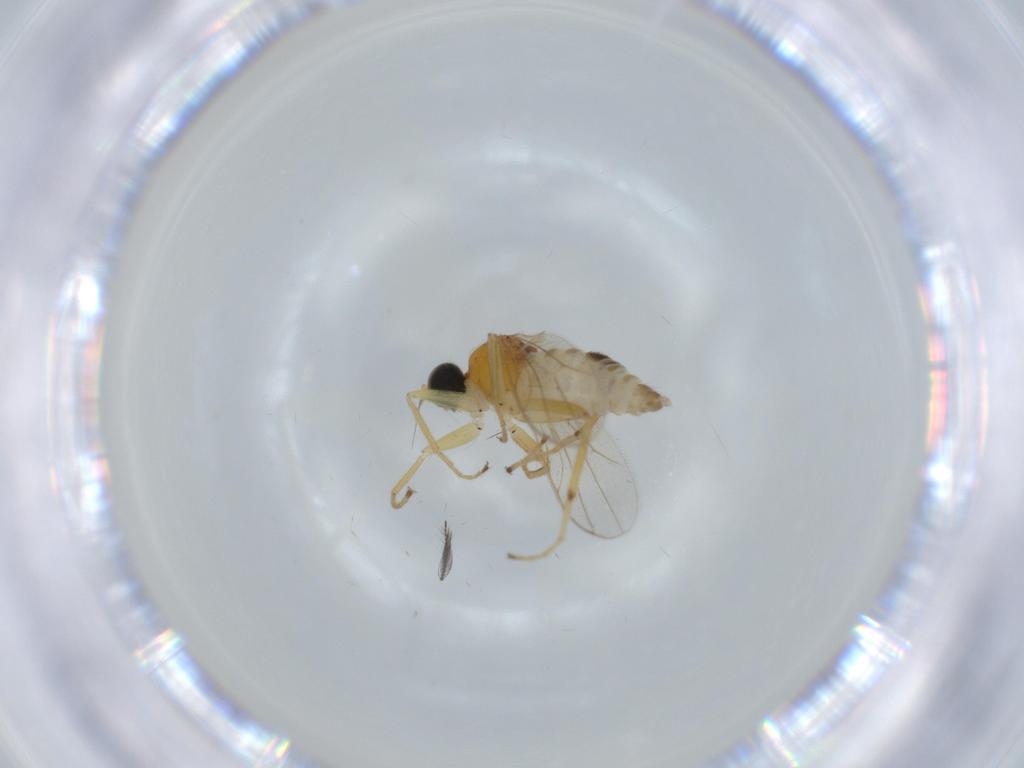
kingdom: Animalia
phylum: Arthropoda
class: Insecta
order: Diptera
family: Hybotidae
